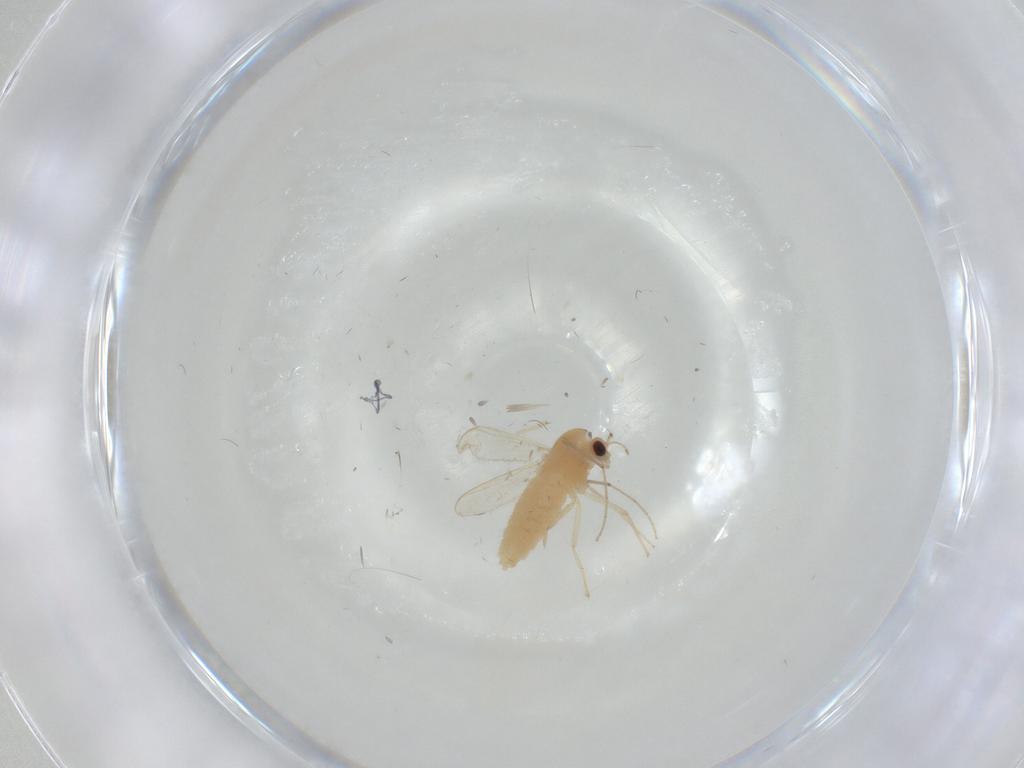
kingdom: Animalia
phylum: Arthropoda
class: Insecta
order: Diptera
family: Chironomidae
